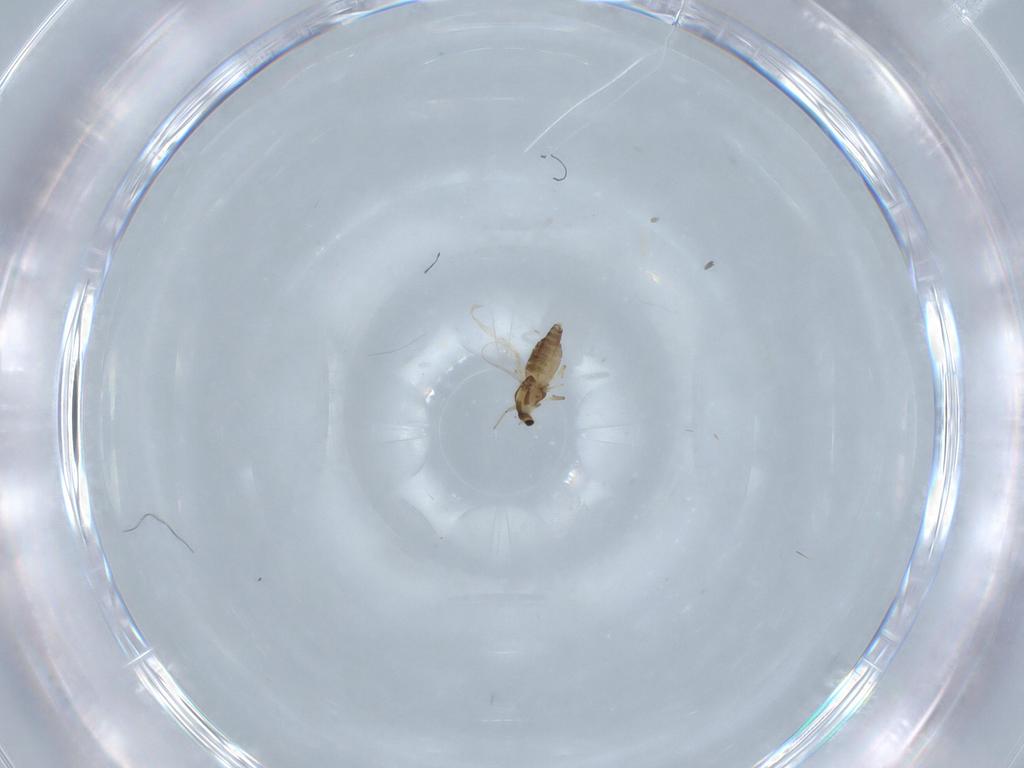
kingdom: Animalia
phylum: Arthropoda
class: Insecta
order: Diptera
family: Chironomidae
